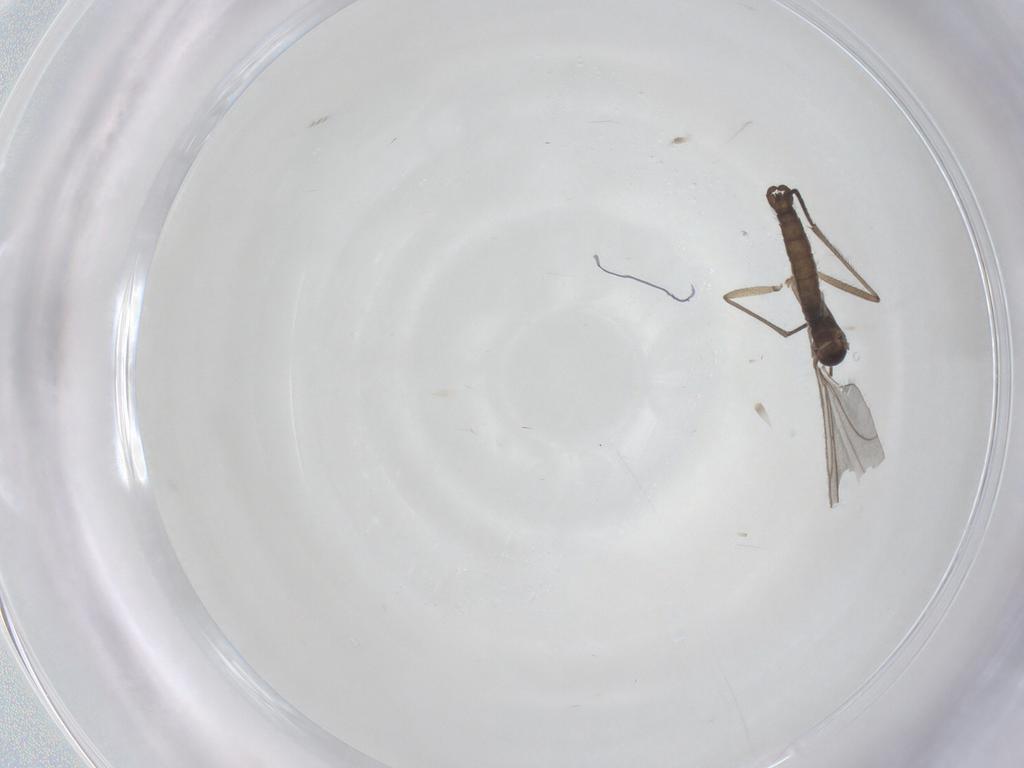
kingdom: Animalia
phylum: Arthropoda
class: Insecta
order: Diptera
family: Sciaridae
